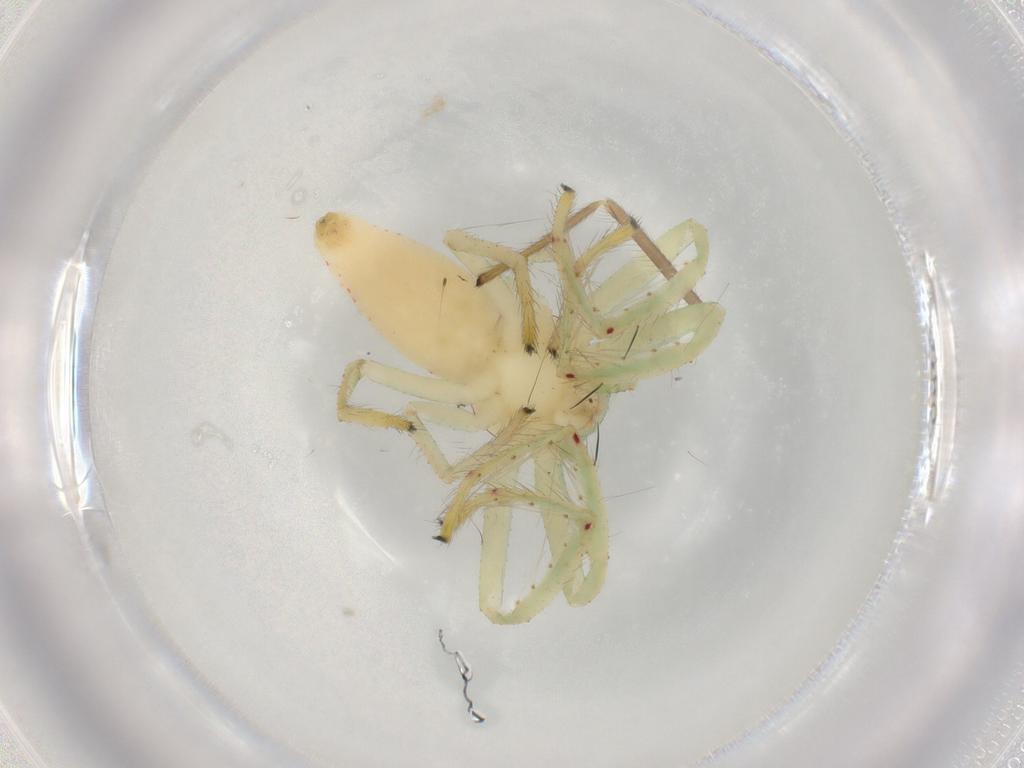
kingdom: Animalia
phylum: Arthropoda
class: Insecta
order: Diptera
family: Chironomidae
